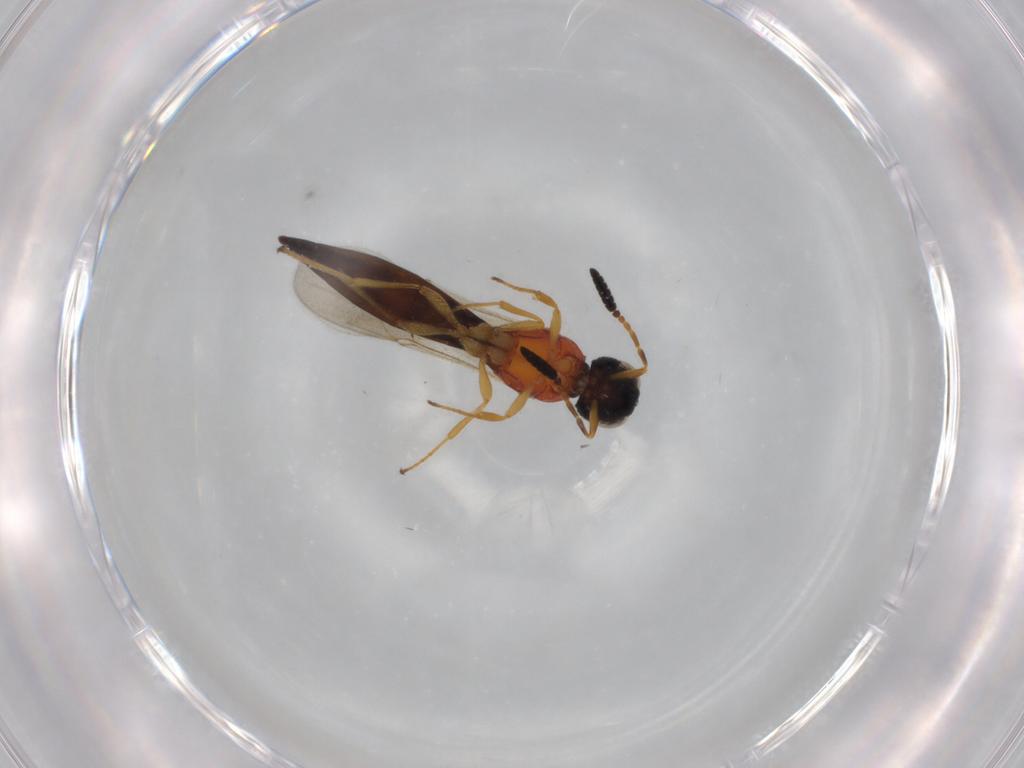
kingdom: Animalia
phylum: Arthropoda
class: Insecta
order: Hymenoptera
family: Scelionidae
